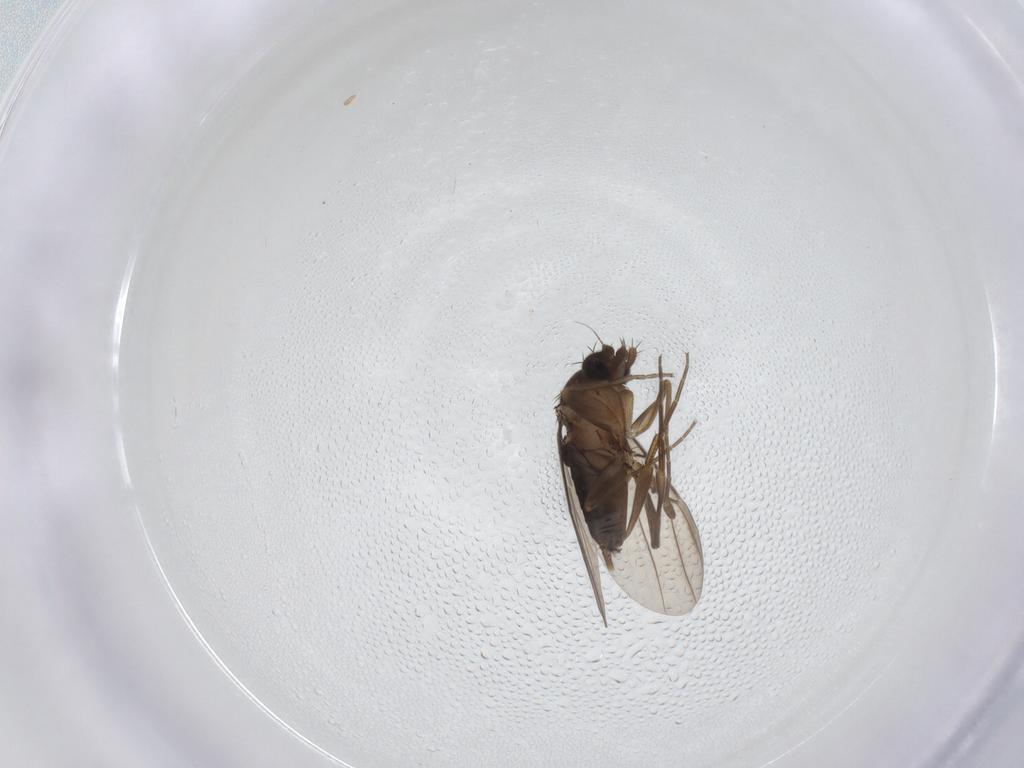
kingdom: Animalia
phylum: Arthropoda
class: Insecta
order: Diptera
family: Phoridae
